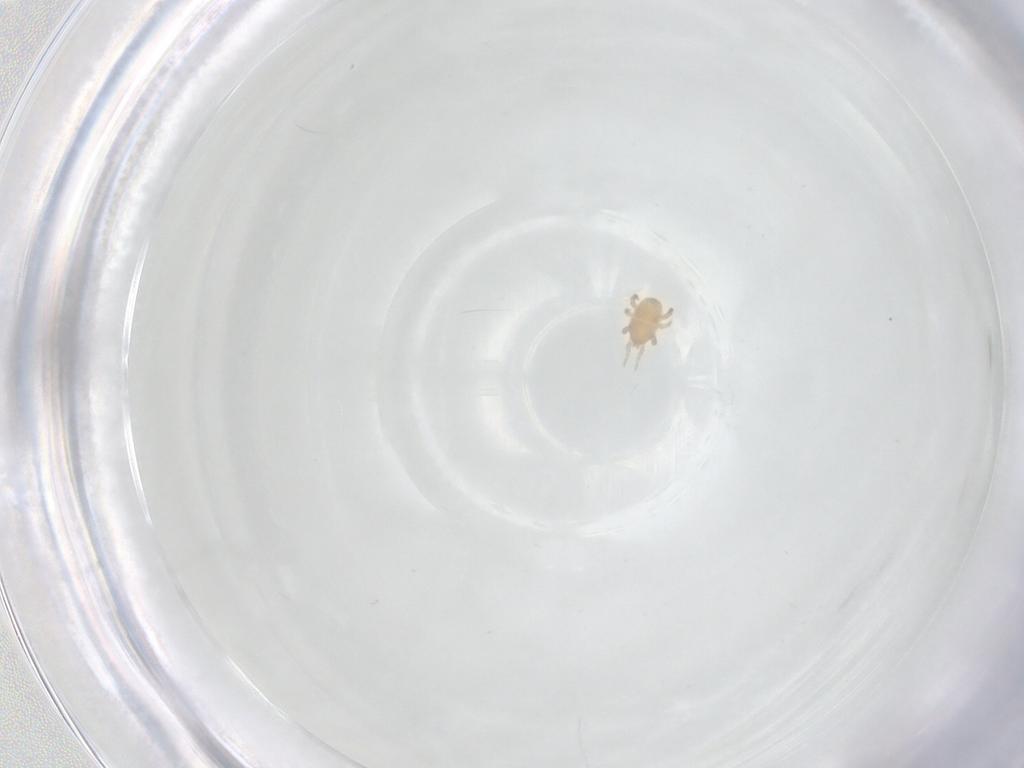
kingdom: Animalia
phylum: Arthropoda
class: Arachnida
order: Mesostigmata
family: Halolaelapidae
